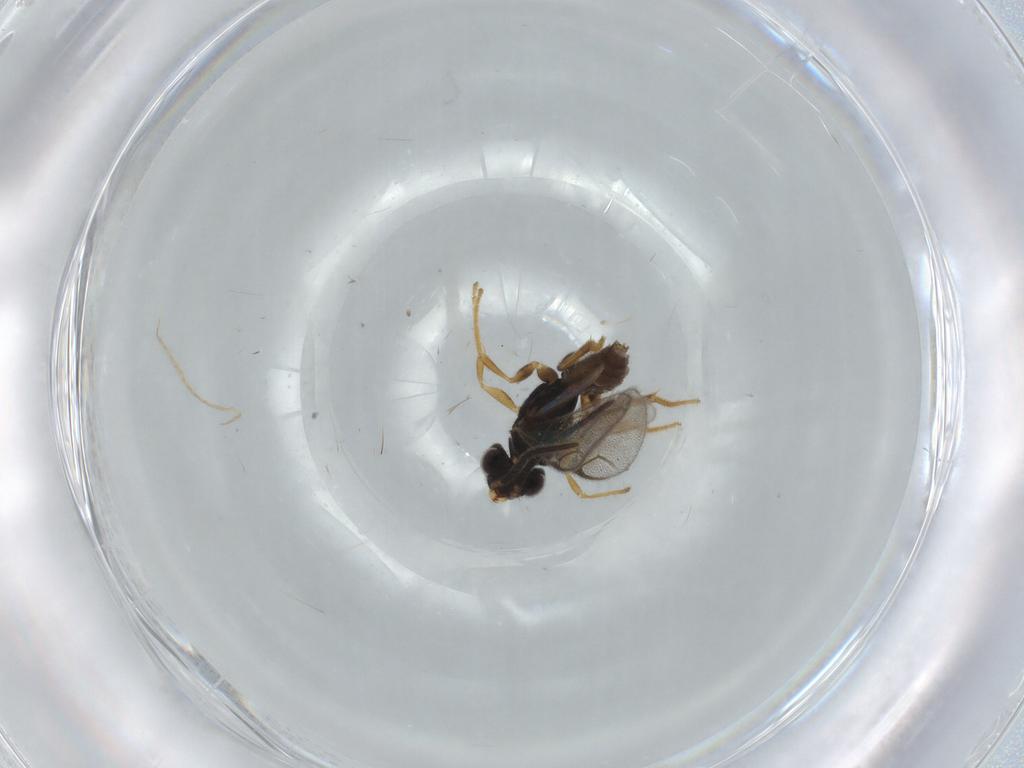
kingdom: Animalia
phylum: Arthropoda
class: Insecta
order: Hymenoptera
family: Dryinidae
